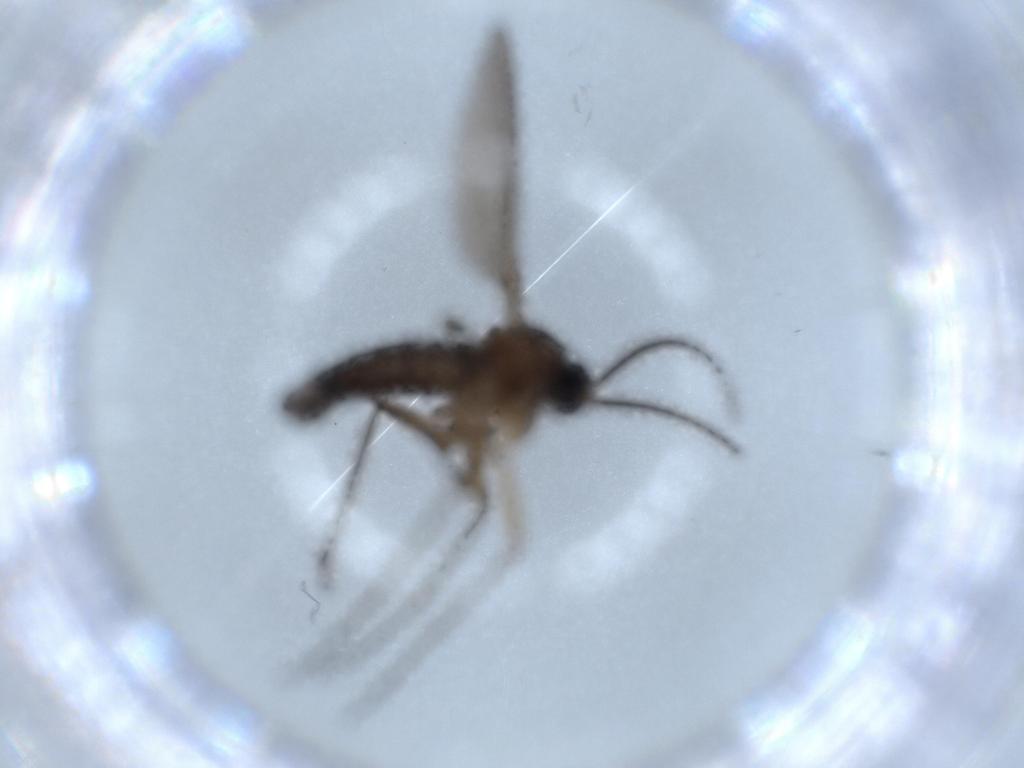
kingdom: Animalia
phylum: Arthropoda
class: Insecta
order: Diptera
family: Sciaridae
